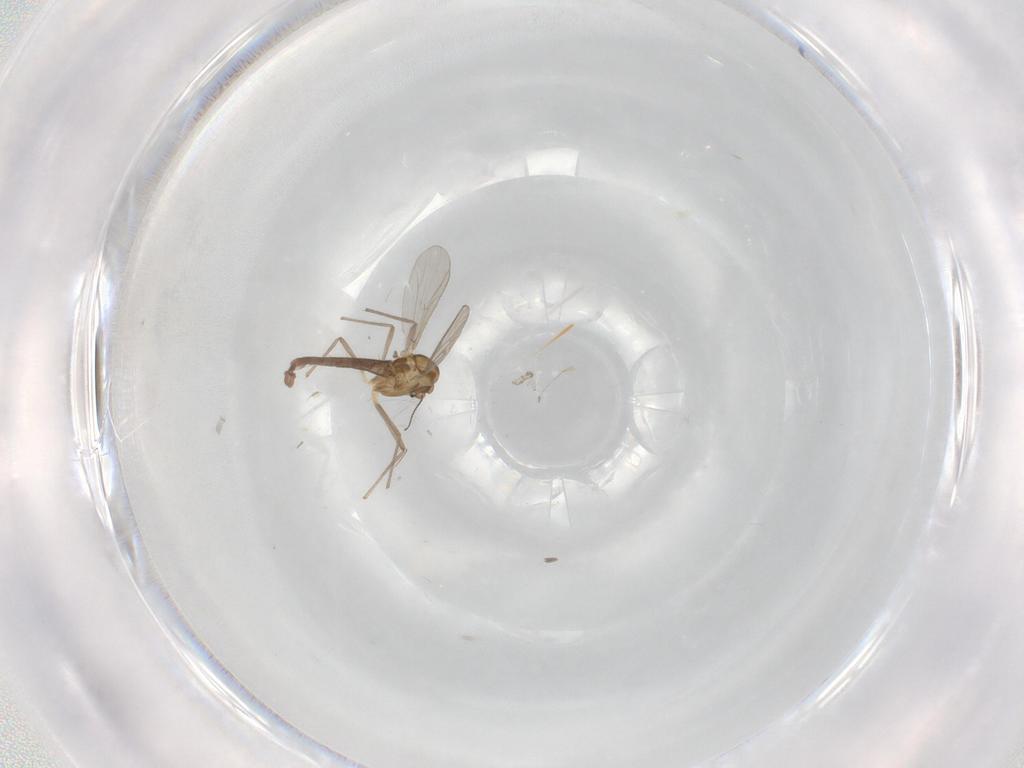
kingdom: Animalia
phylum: Arthropoda
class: Insecta
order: Diptera
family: Chironomidae
